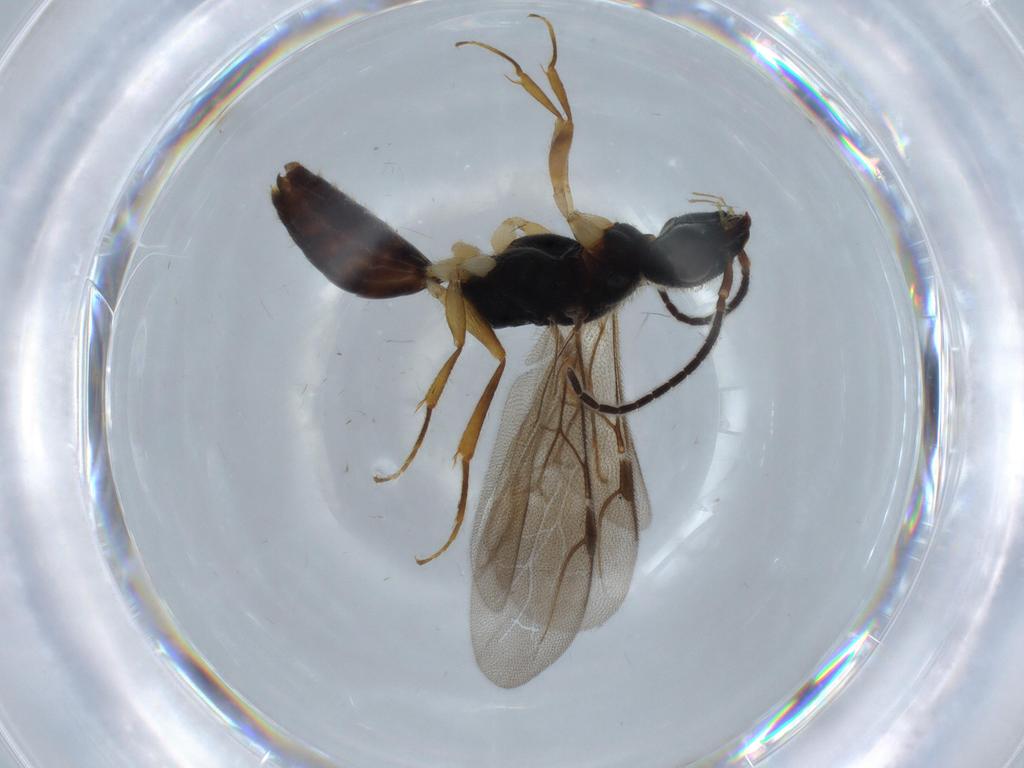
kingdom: Animalia
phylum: Arthropoda
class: Insecta
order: Hymenoptera
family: Bethylidae
